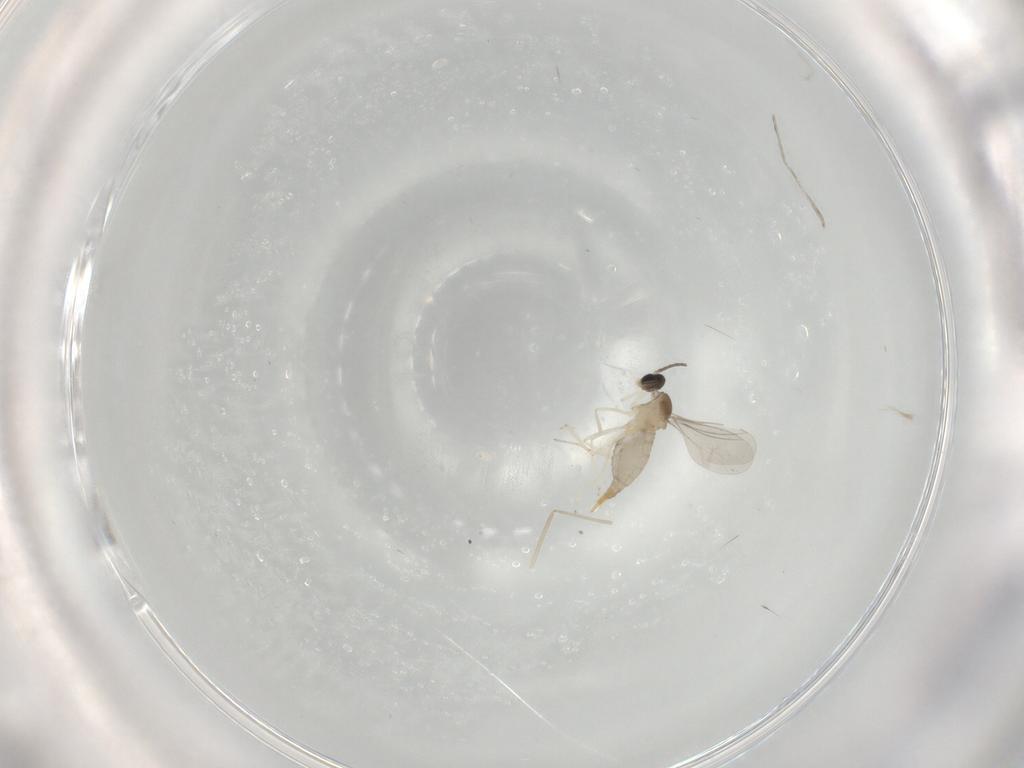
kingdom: Animalia
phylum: Arthropoda
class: Insecta
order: Diptera
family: Cecidomyiidae
